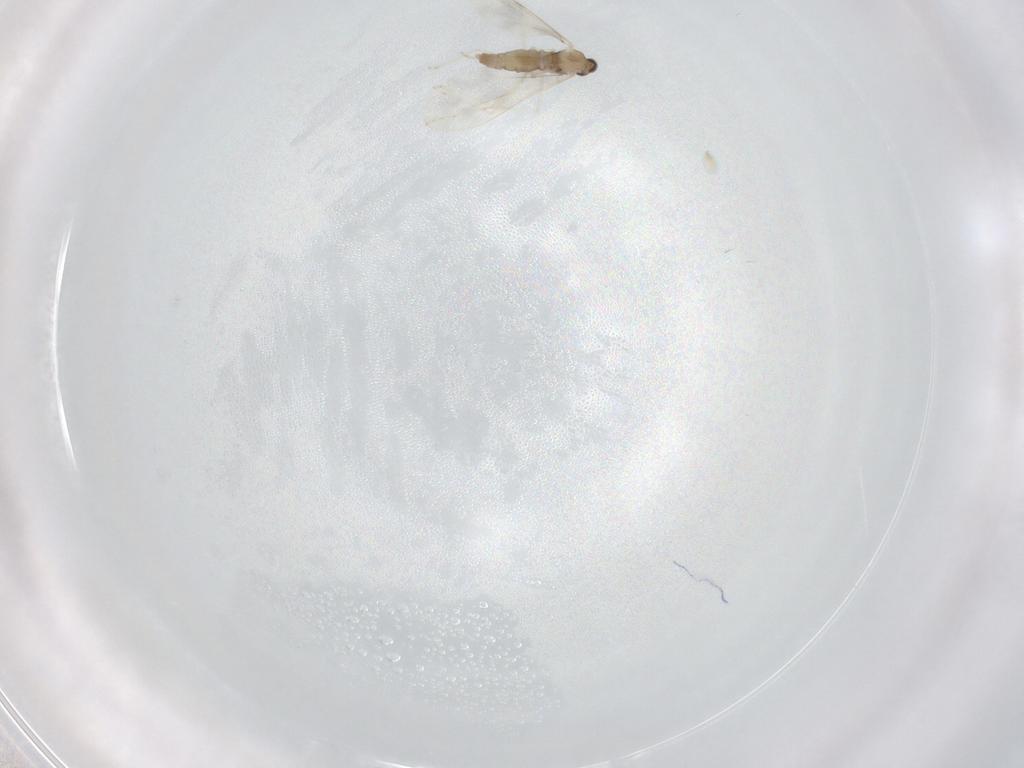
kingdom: Animalia
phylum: Arthropoda
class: Insecta
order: Diptera
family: Cecidomyiidae
